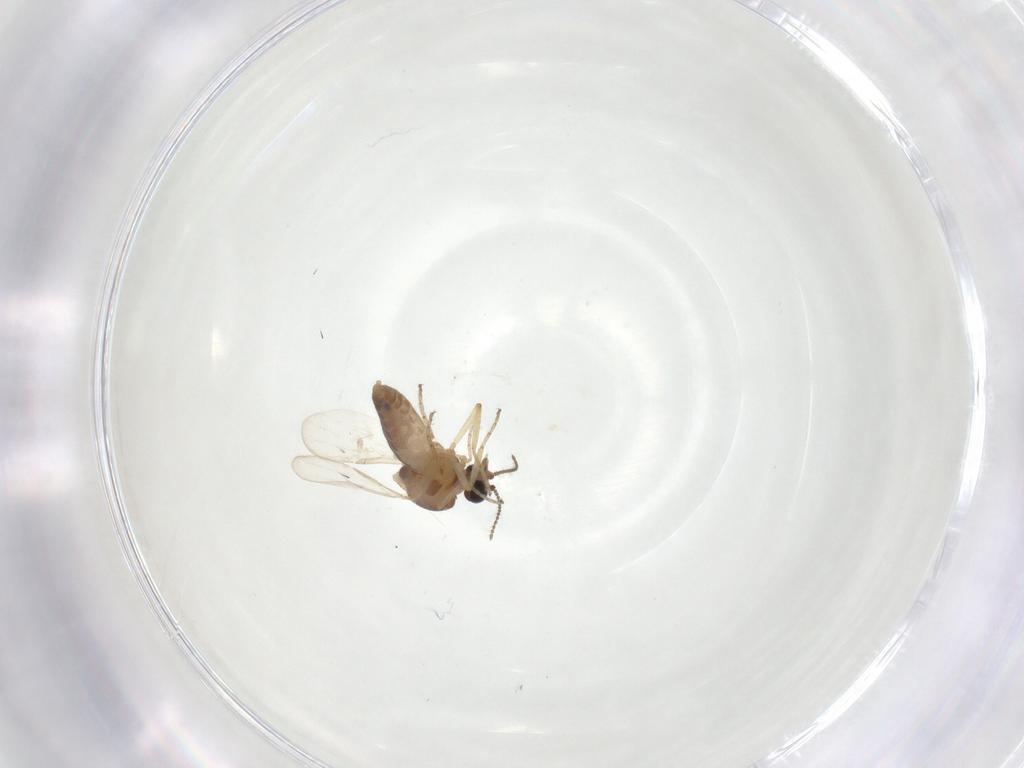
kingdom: Animalia
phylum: Arthropoda
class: Insecta
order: Diptera
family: Ceratopogonidae
